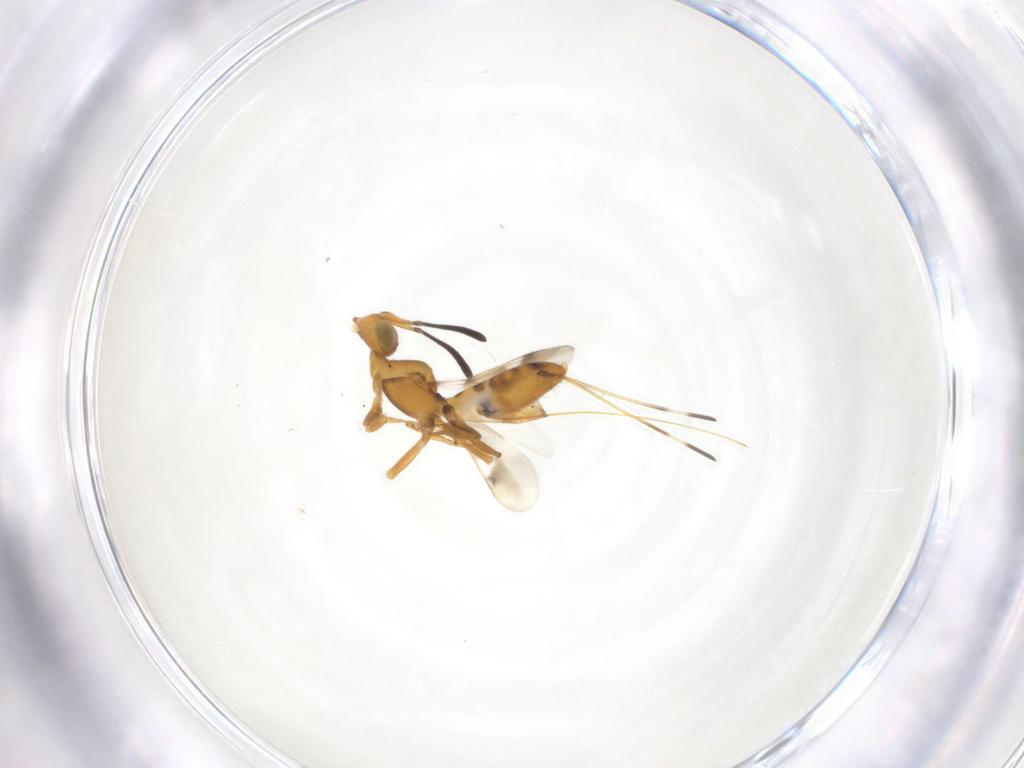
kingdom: Animalia
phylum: Arthropoda
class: Insecta
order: Hymenoptera
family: Eupelmidae
